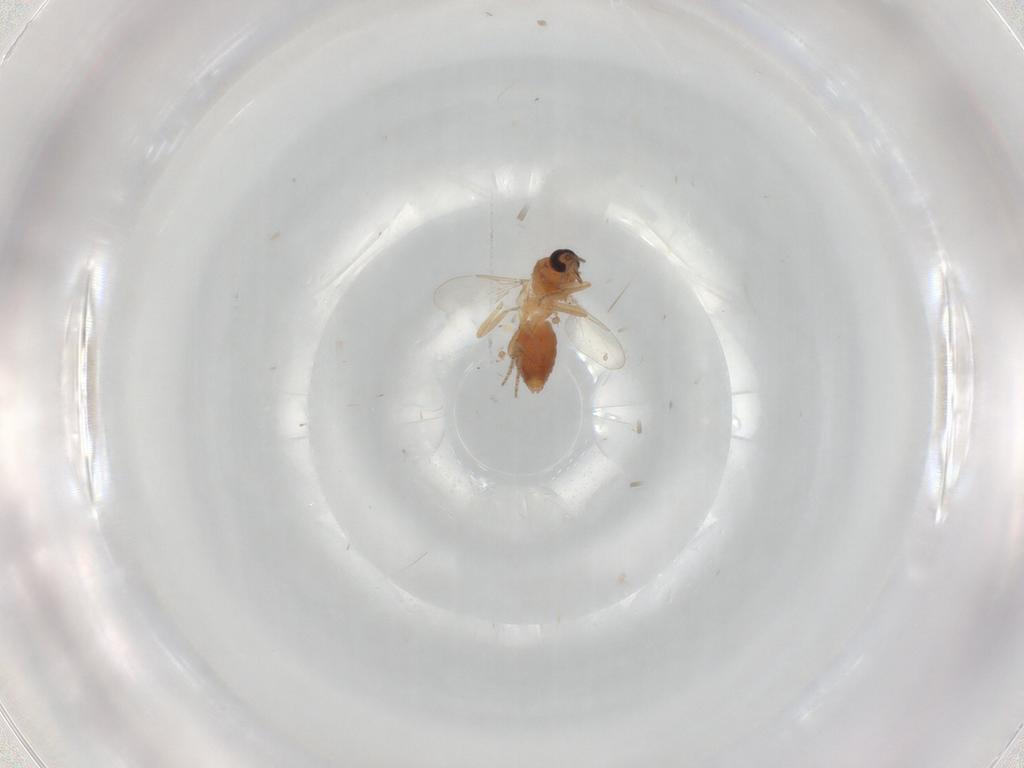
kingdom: Animalia
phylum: Arthropoda
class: Insecta
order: Diptera
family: Ceratopogonidae
